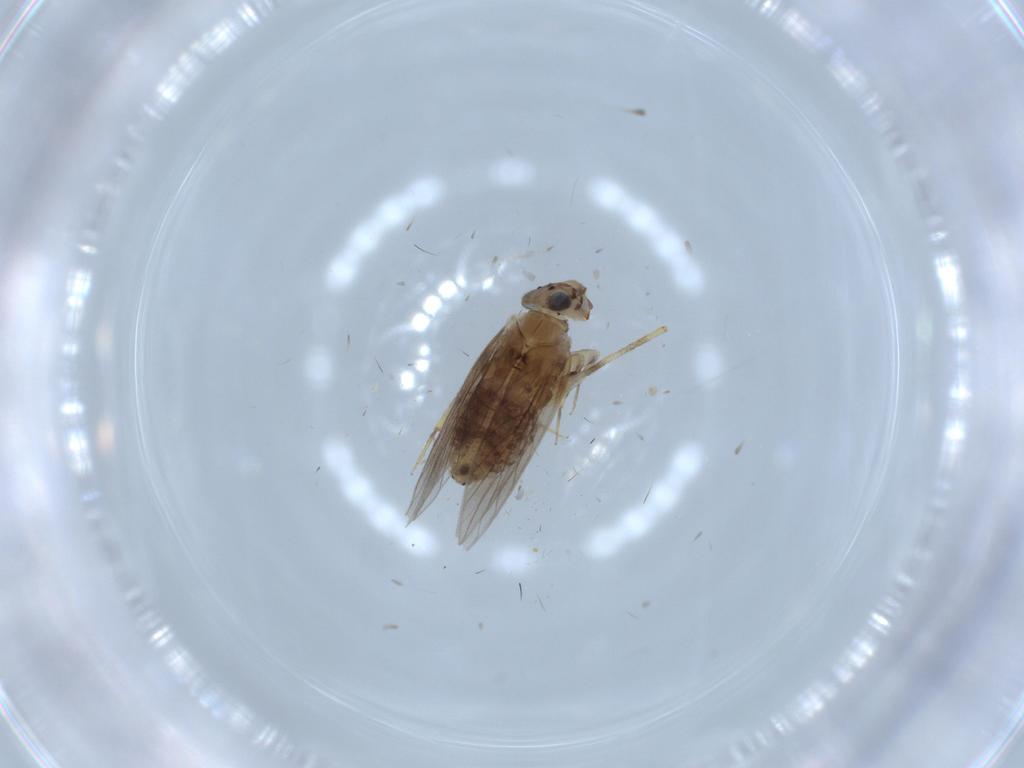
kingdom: Animalia
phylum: Arthropoda
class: Insecta
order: Psocodea
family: Lepidopsocidae
